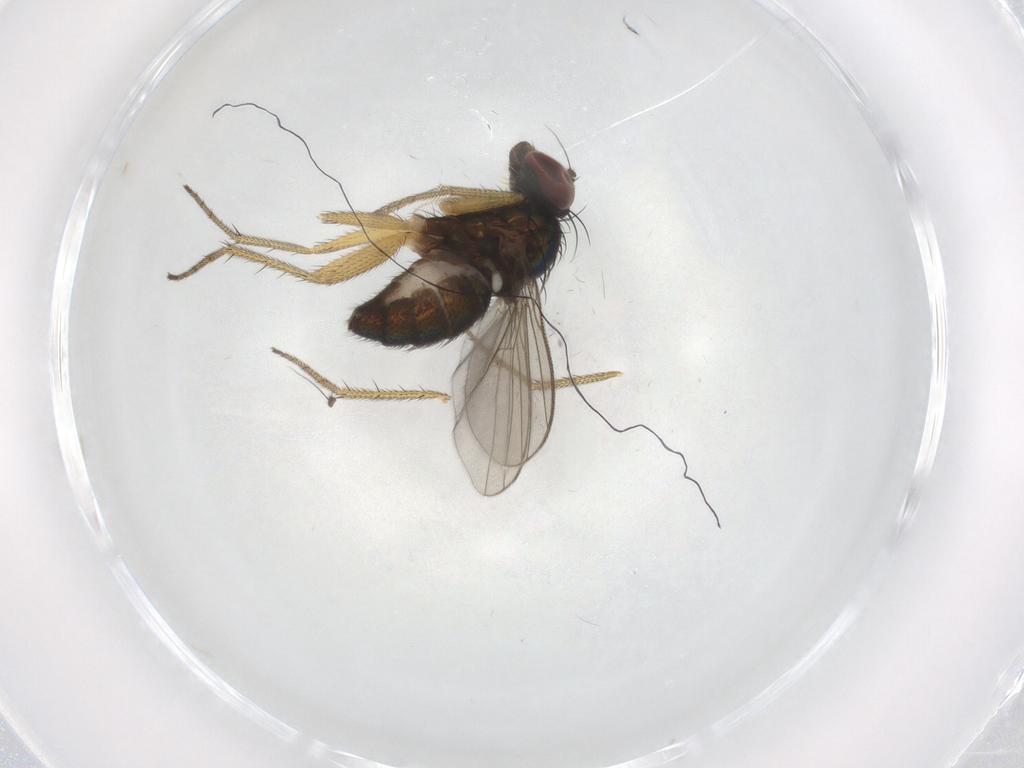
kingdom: Animalia
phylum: Arthropoda
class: Insecta
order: Diptera
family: Dolichopodidae
